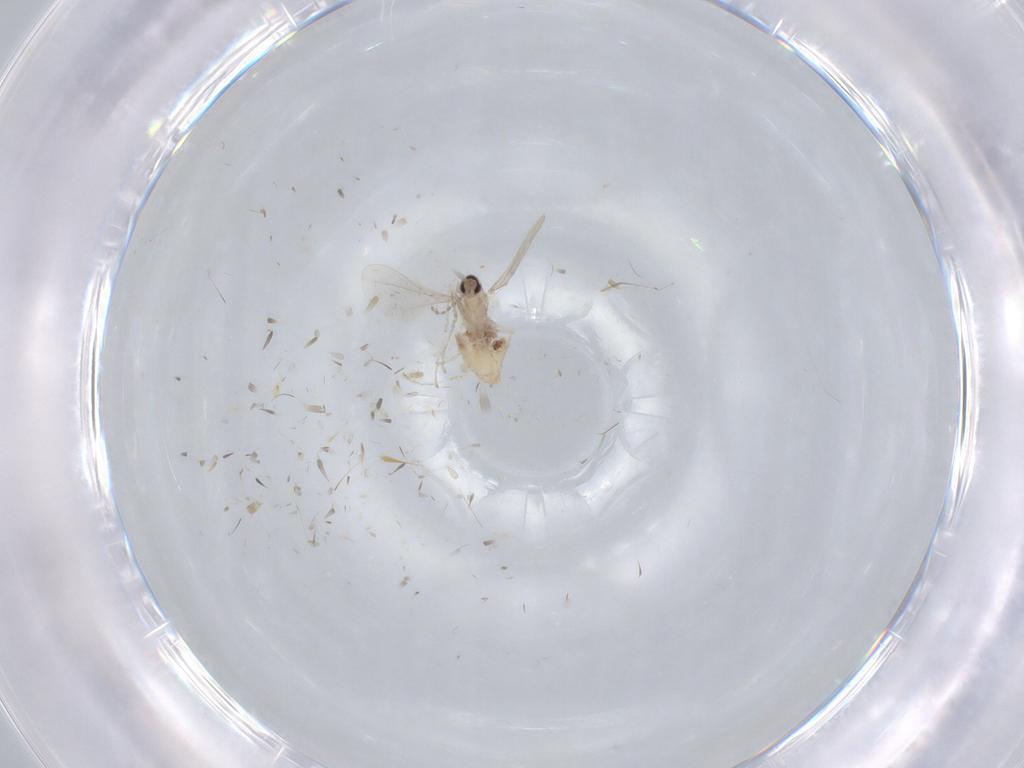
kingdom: Animalia
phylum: Arthropoda
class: Insecta
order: Diptera
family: Cecidomyiidae
